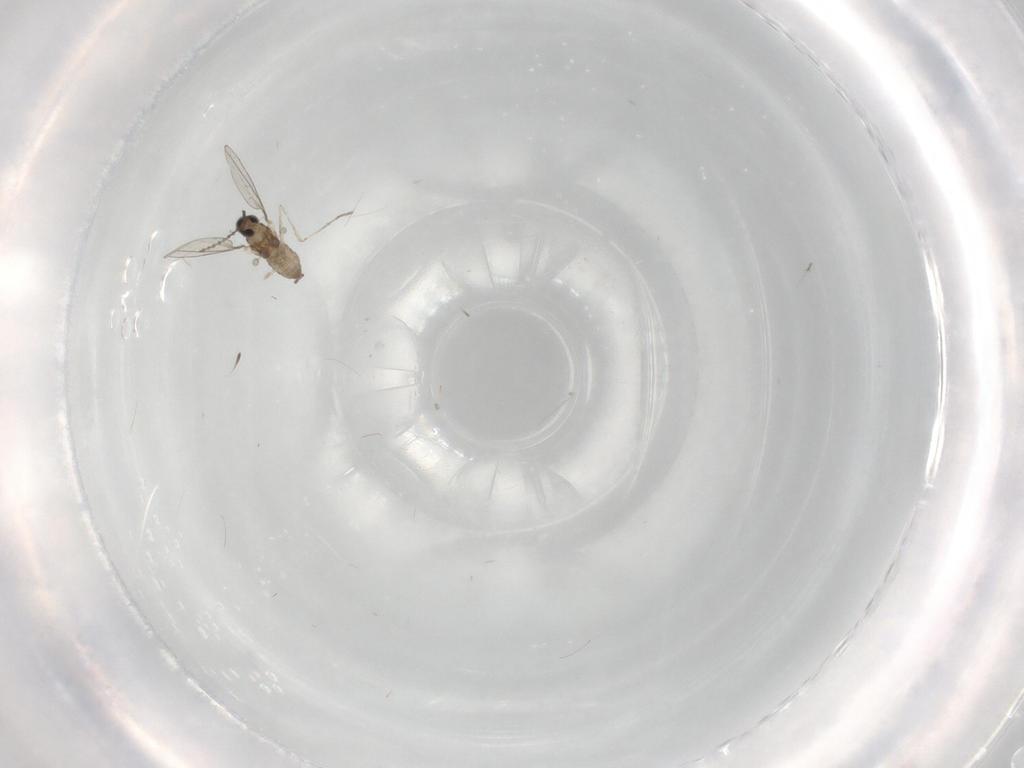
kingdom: Animalia
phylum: Arthropoda
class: Insecta
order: Diptera
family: Cecidomyiidae
